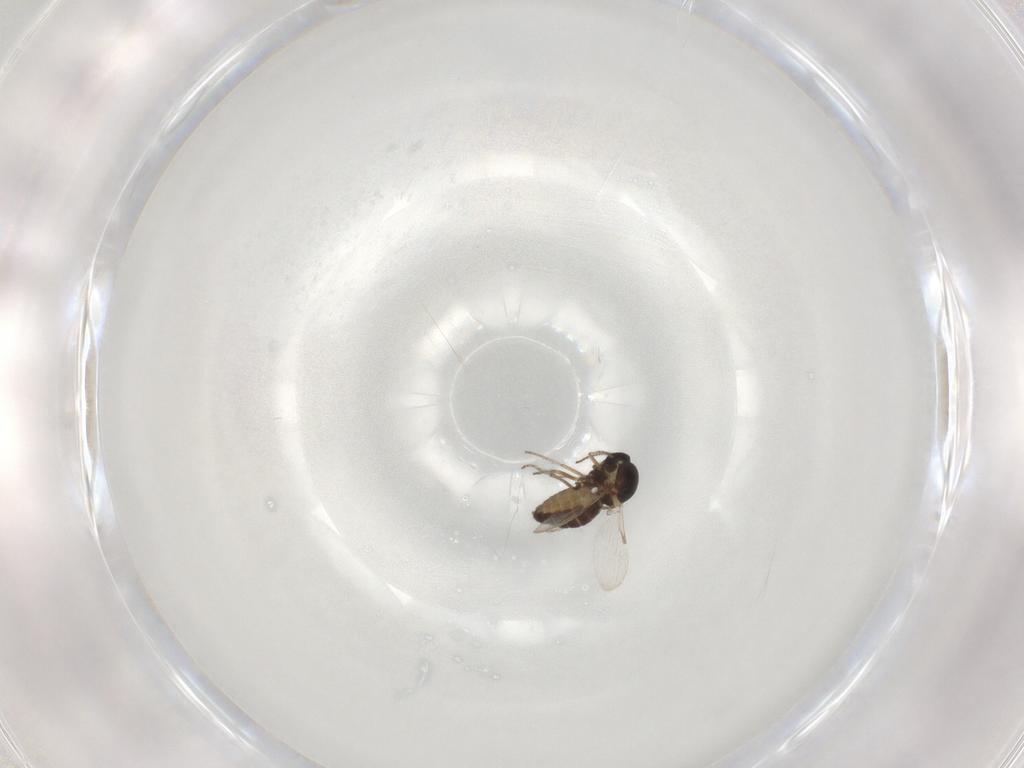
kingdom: Animalia
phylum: Arthropoda
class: Insecta
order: Diptera
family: Ceratopogonidae
